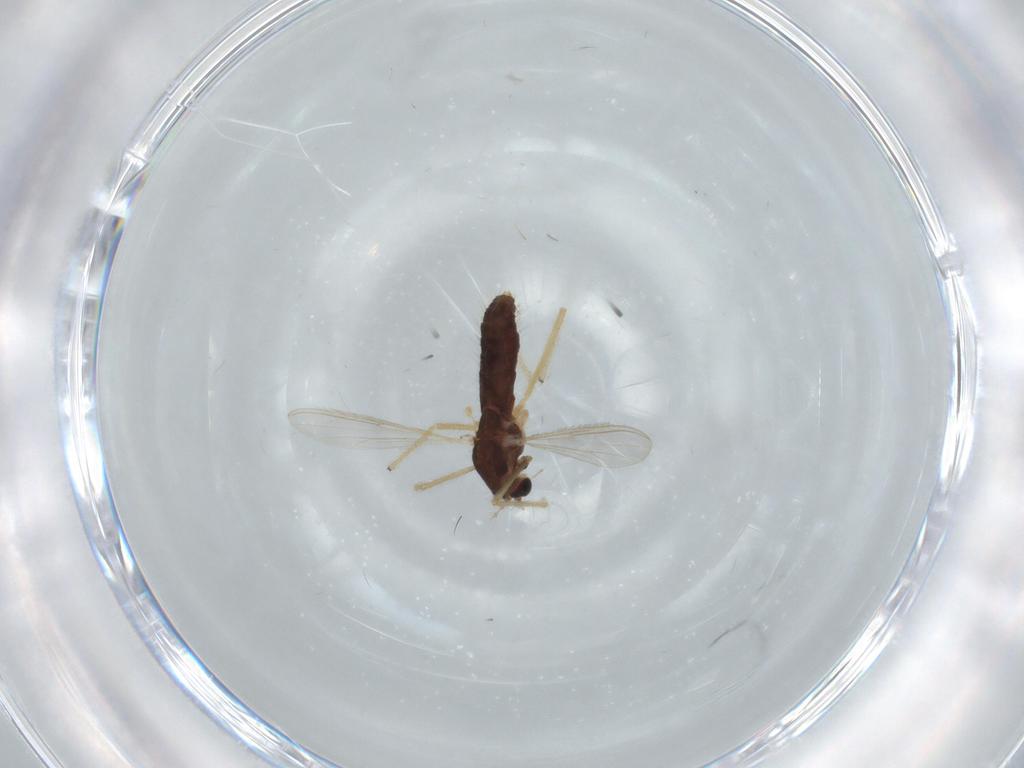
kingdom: Animalia
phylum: Arthropoda
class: Insecta
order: Diptera
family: Chironomidae
